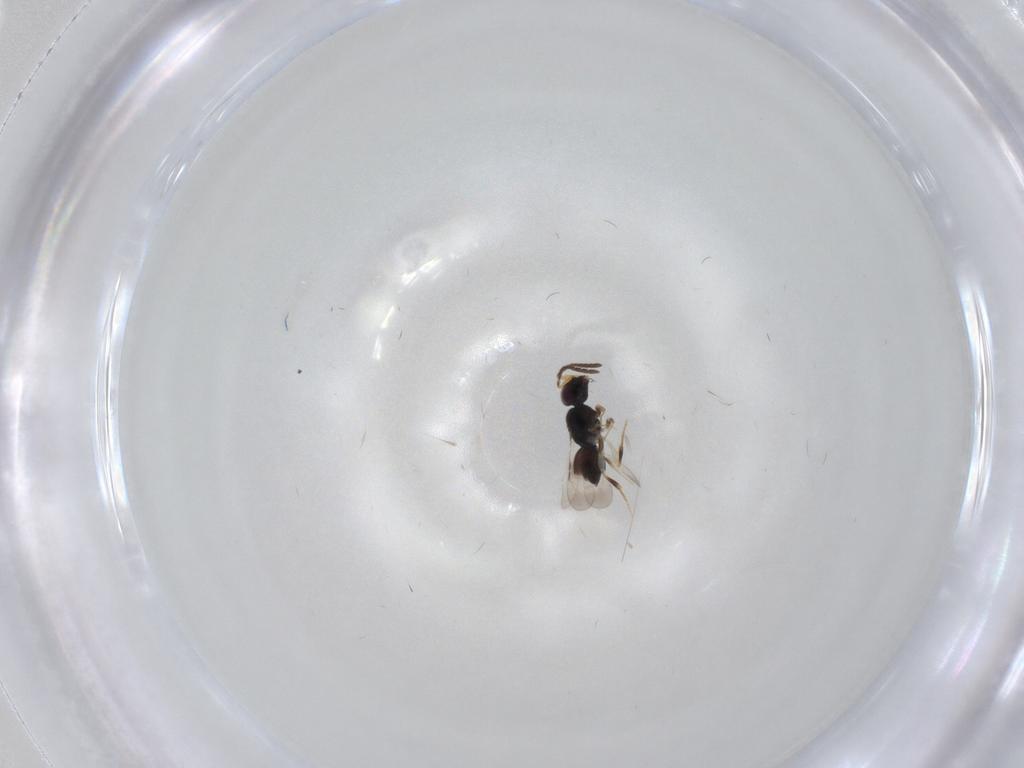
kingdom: Animalia
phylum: Arthropoda
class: Insecta
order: Hymenoptera
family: Ceraphronidae
